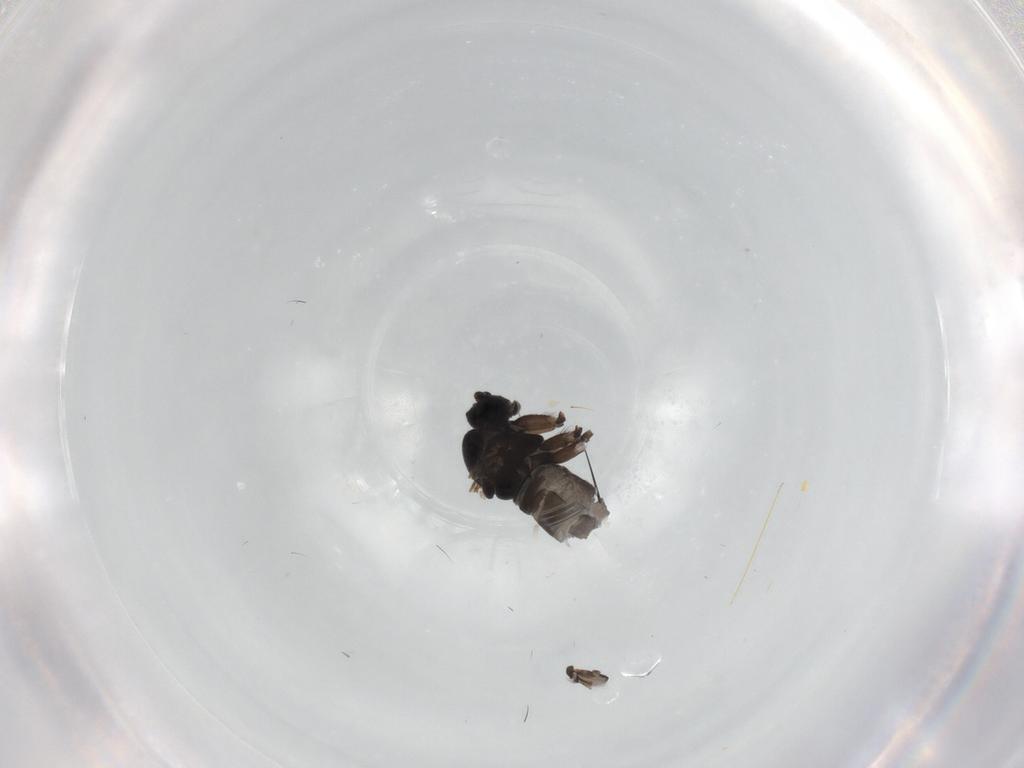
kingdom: Animalia
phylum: Arthropoda
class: Insecta
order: Diptera
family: Sciaridae
